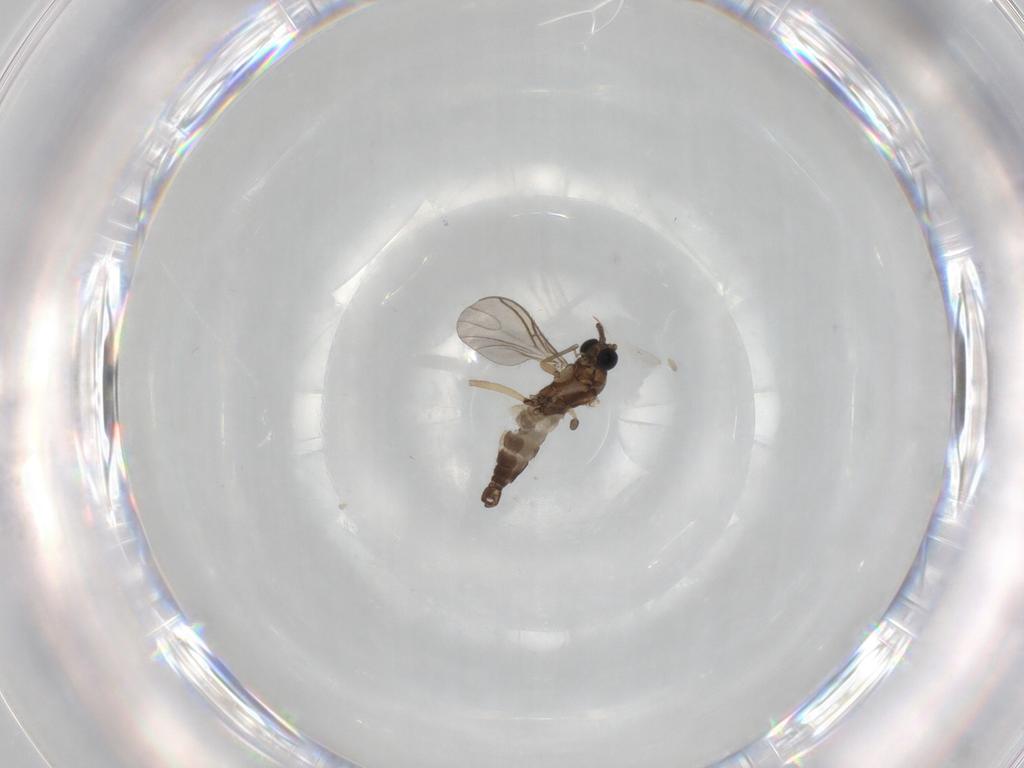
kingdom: Animalia
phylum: Arthropoda
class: Insecta
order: Diptera
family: Sciaridae
